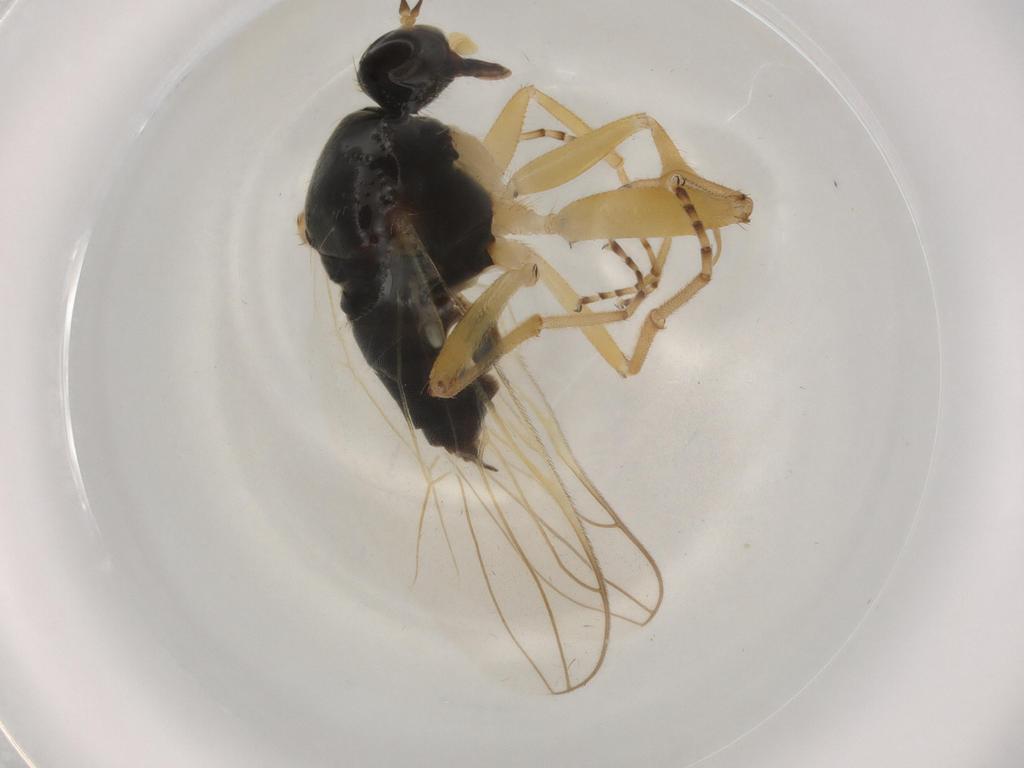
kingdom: Animalia
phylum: Arthropoda
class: Insecta
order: Diptera
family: Hybotidae
